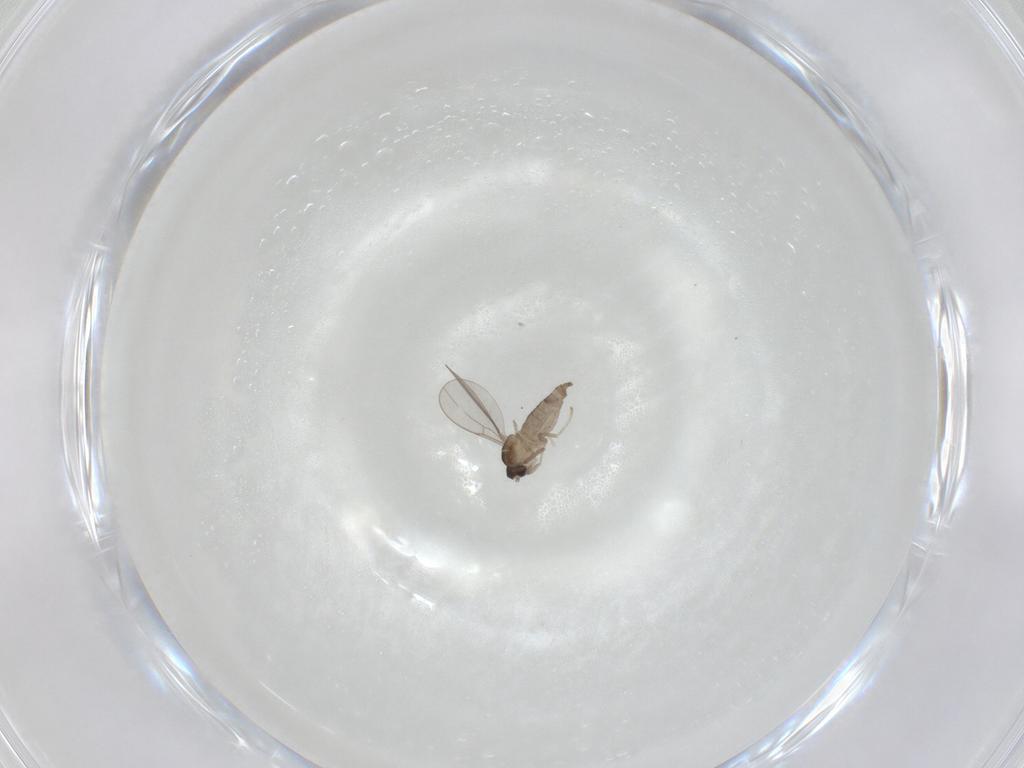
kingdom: Animalia
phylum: Arthropoda
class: Insecta
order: Diptera
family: Cecidomyiidae
